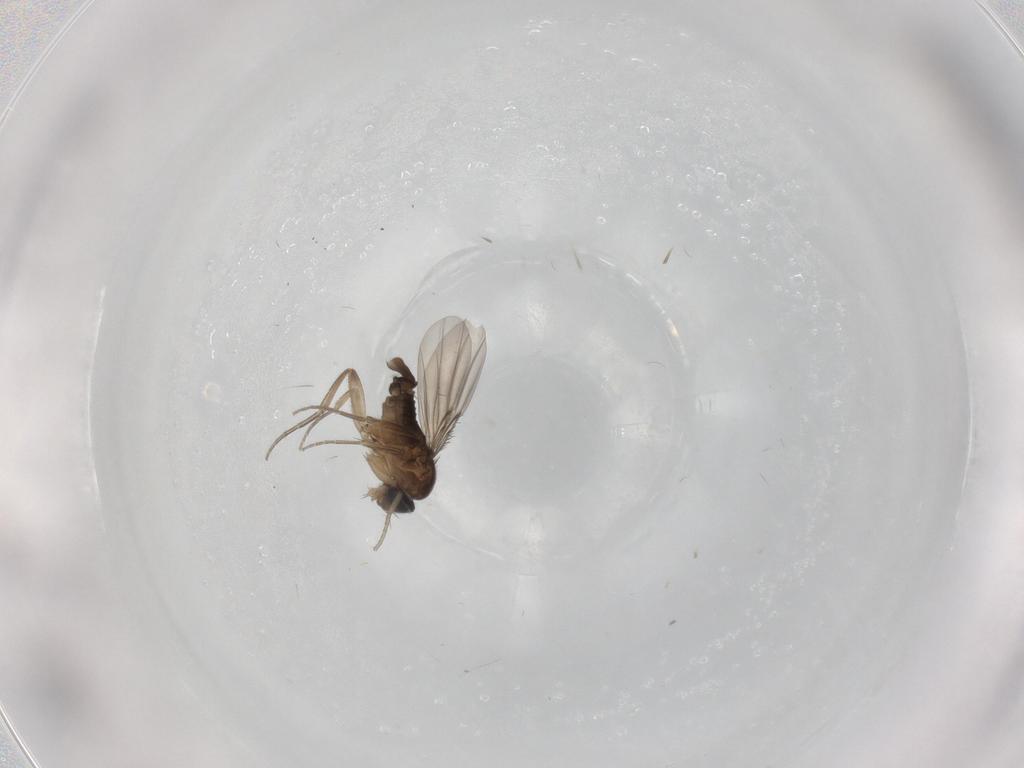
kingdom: Animalia
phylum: Arthropoda
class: Insecta
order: Diptera
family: Phoridae
